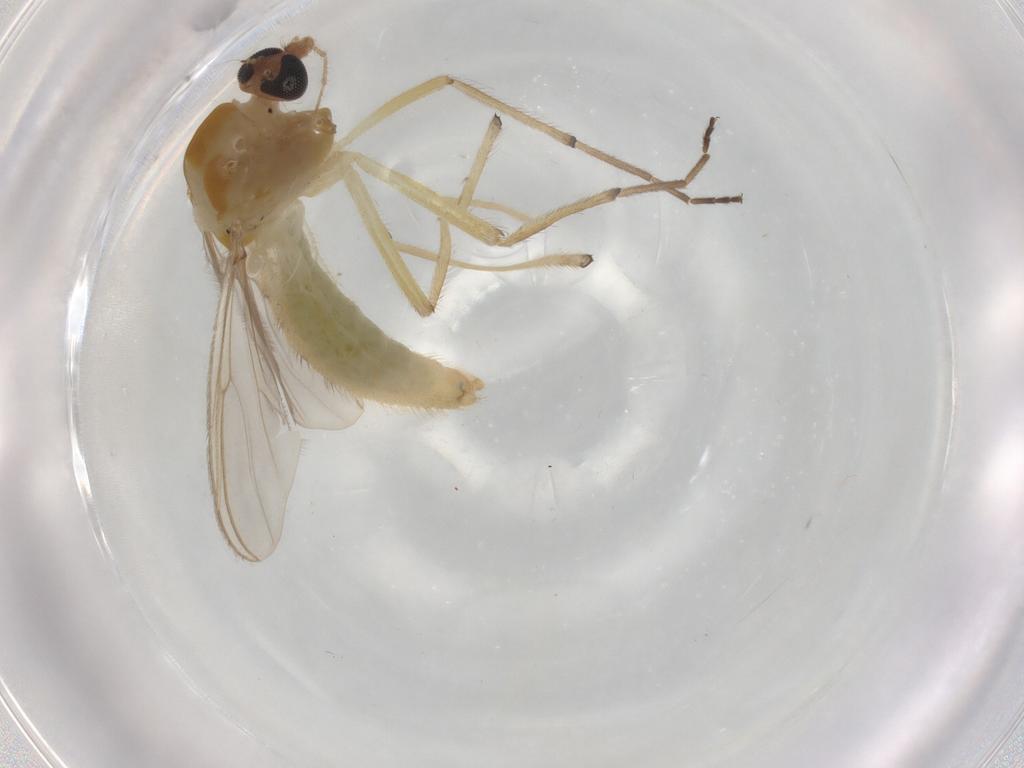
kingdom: Animalia
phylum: Arthropoda
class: Insecta
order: Diptera
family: Chironomidae
